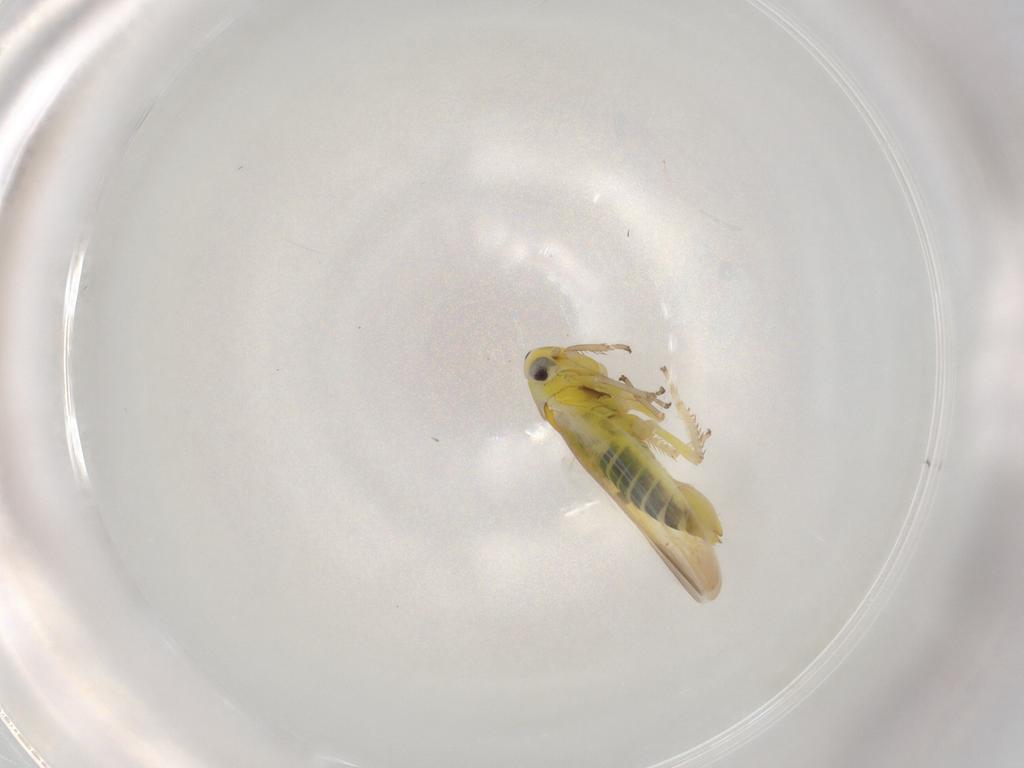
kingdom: Animalia
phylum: Arthropoda
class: Insecta
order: Hemiptera
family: Cicadellidae
